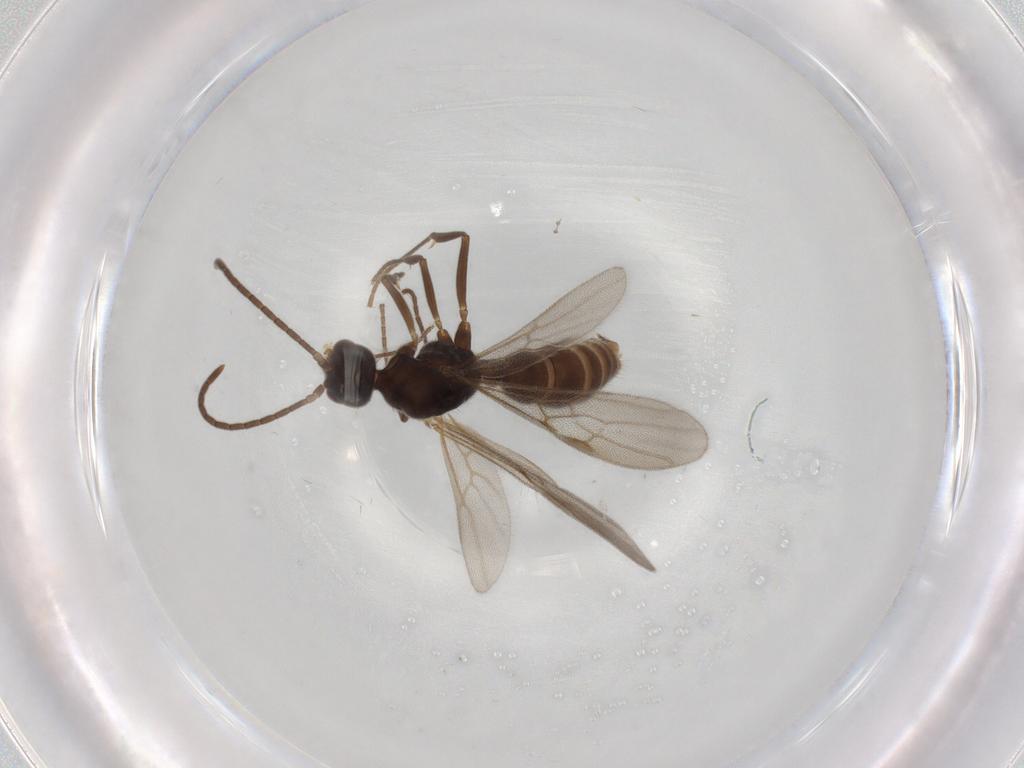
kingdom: Animalia
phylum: Arthropoda
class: Insecta
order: Hymenoptera
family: Formicidae
